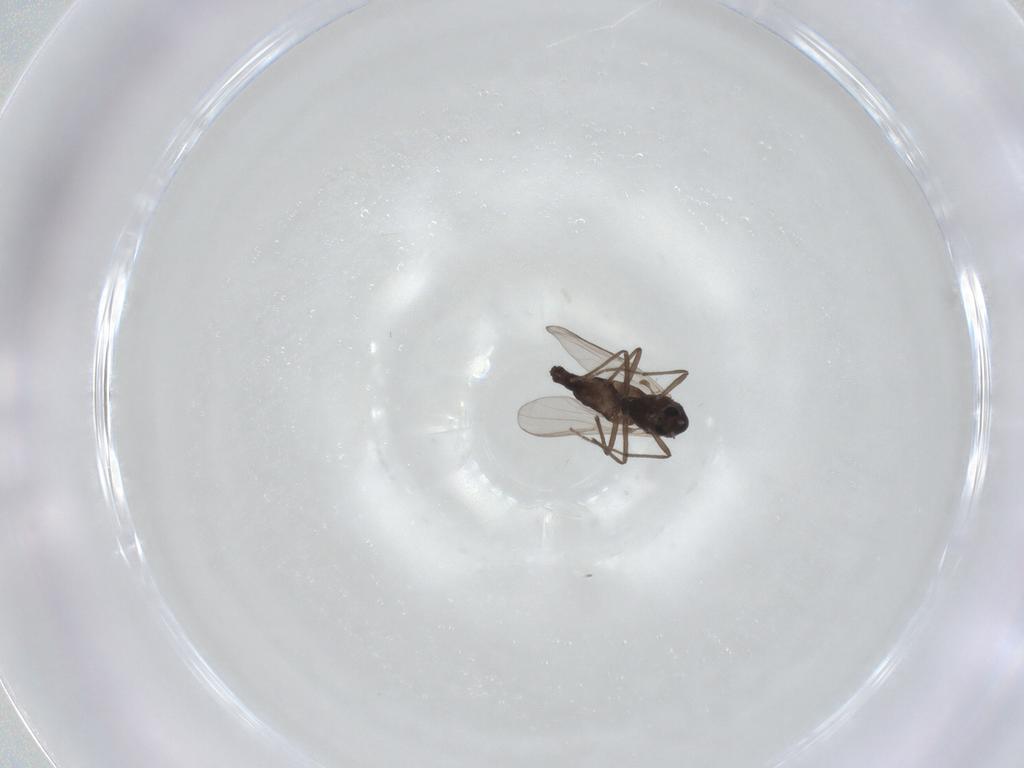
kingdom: Animalia
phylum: Arthropoda
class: Insecta
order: Diptera
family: Chironomidae
